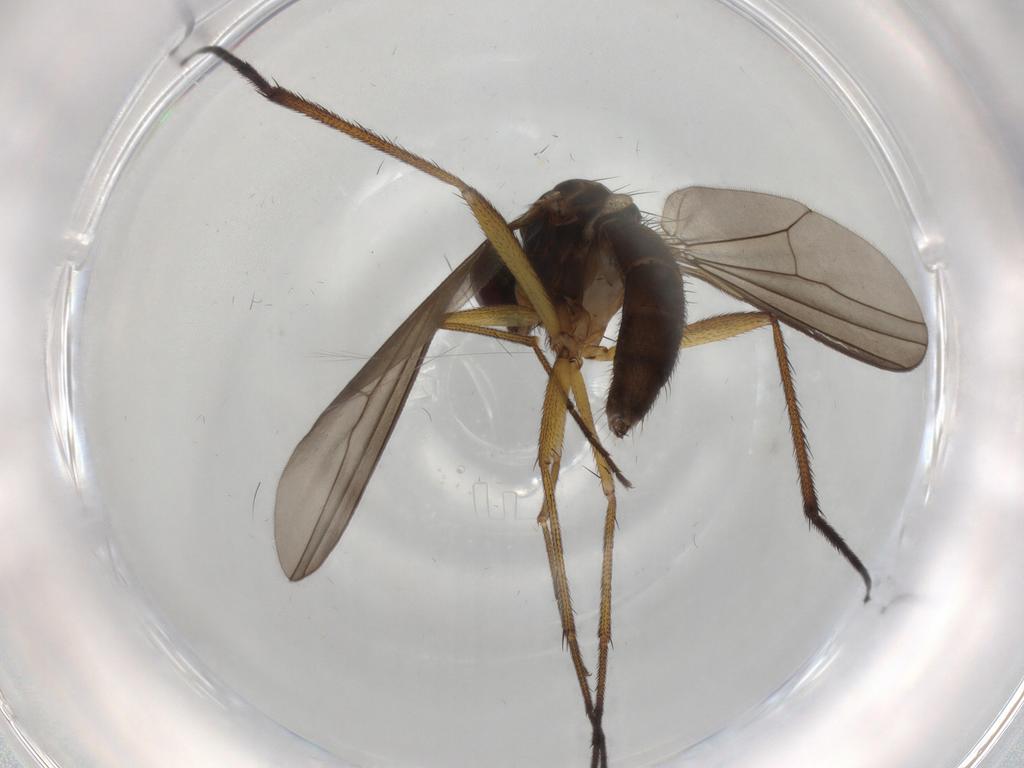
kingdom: Animalia
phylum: Arthropoda
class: Insecta
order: Diptera
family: Dolichopodidae
